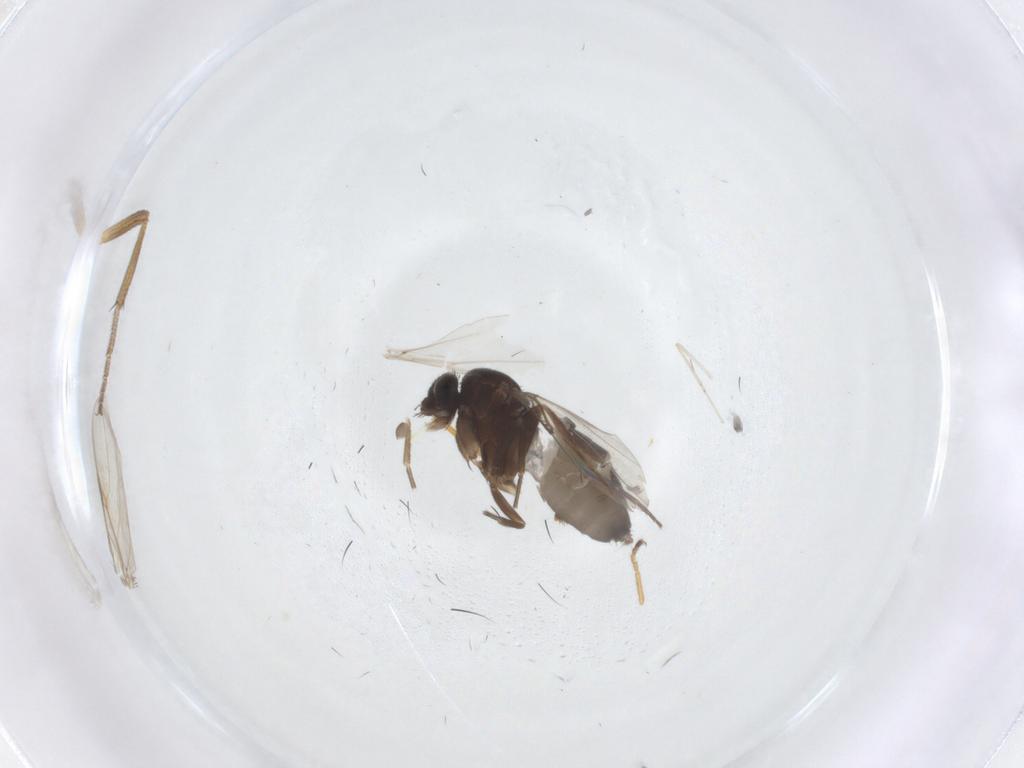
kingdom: Animalia
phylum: Arthropoda
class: Insecta
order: Diptera
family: Phoridae
